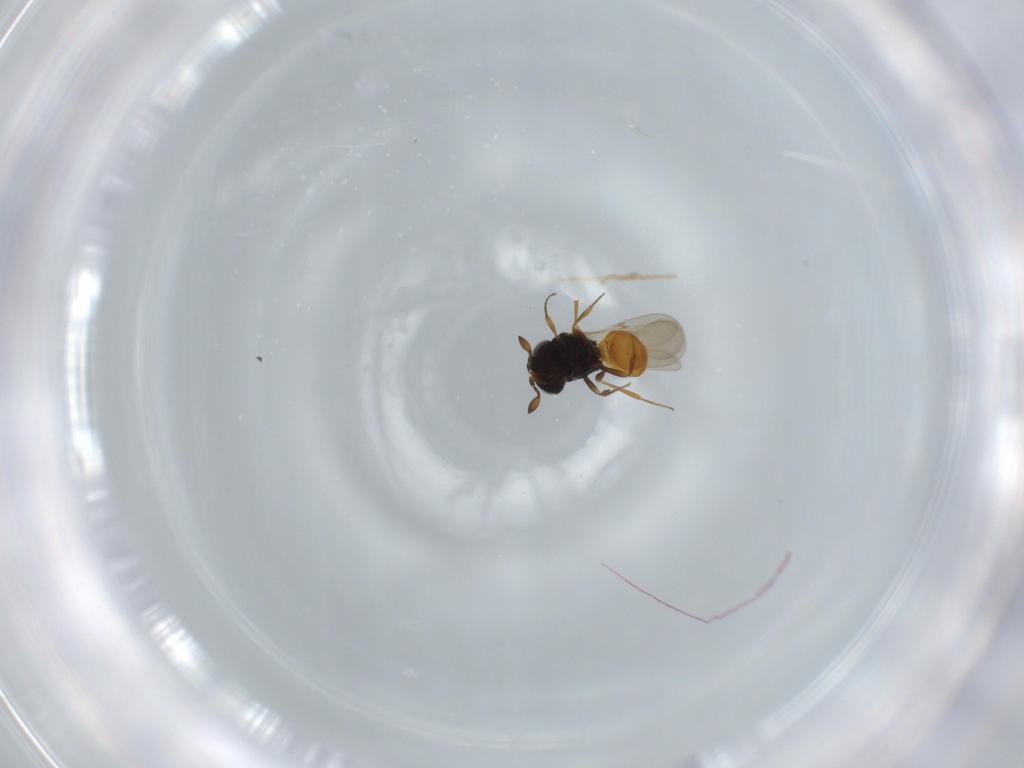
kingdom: Animalia
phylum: Arthropoda
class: Insecta
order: Hymenoptera
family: Scelionidae
